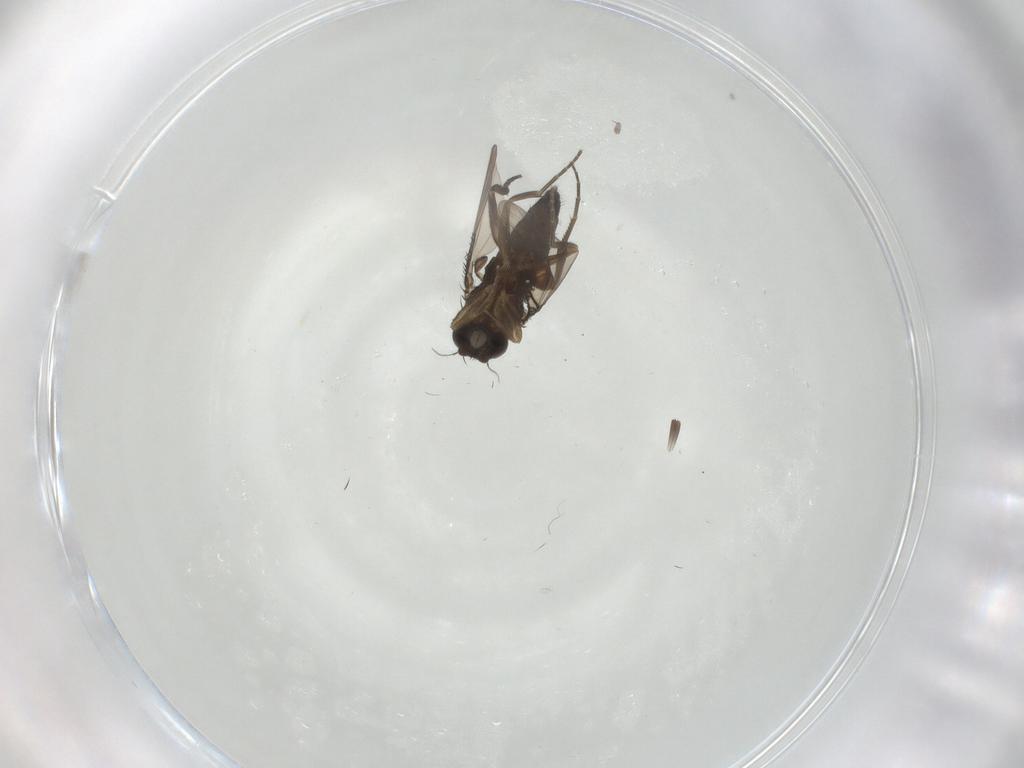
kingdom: Animalia
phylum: Arthropoda
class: Insecta
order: Diptera
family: Phoridae
